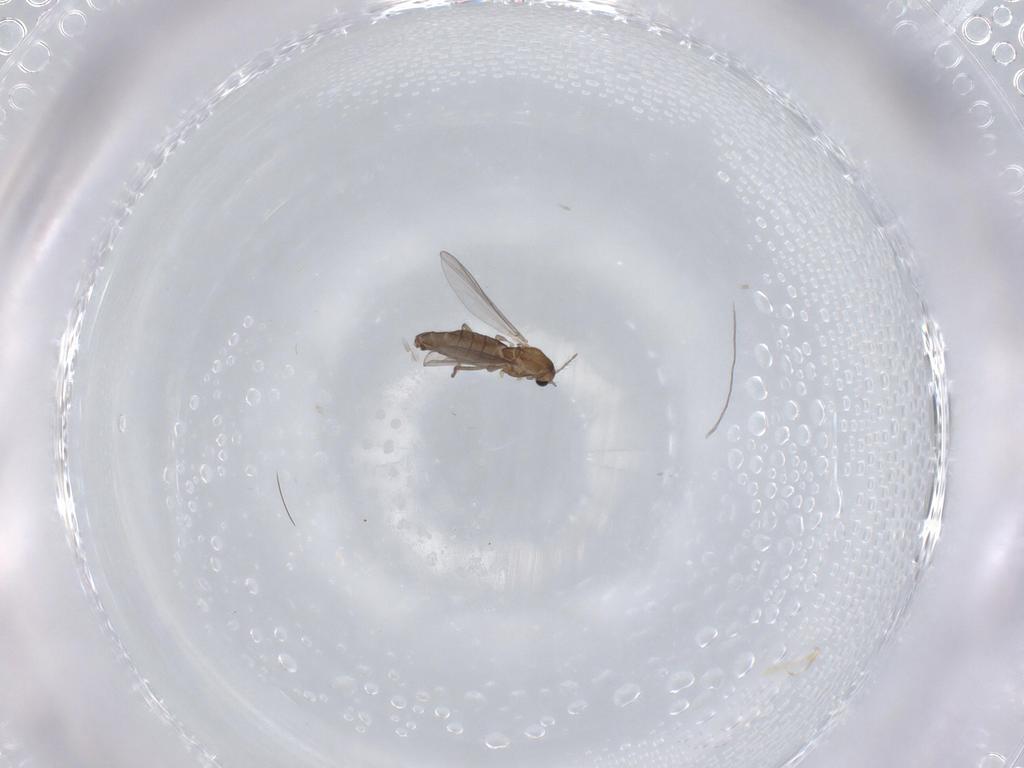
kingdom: Animalia
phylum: Arthropoda
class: Insecta
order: Diptera
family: Chironomidae
